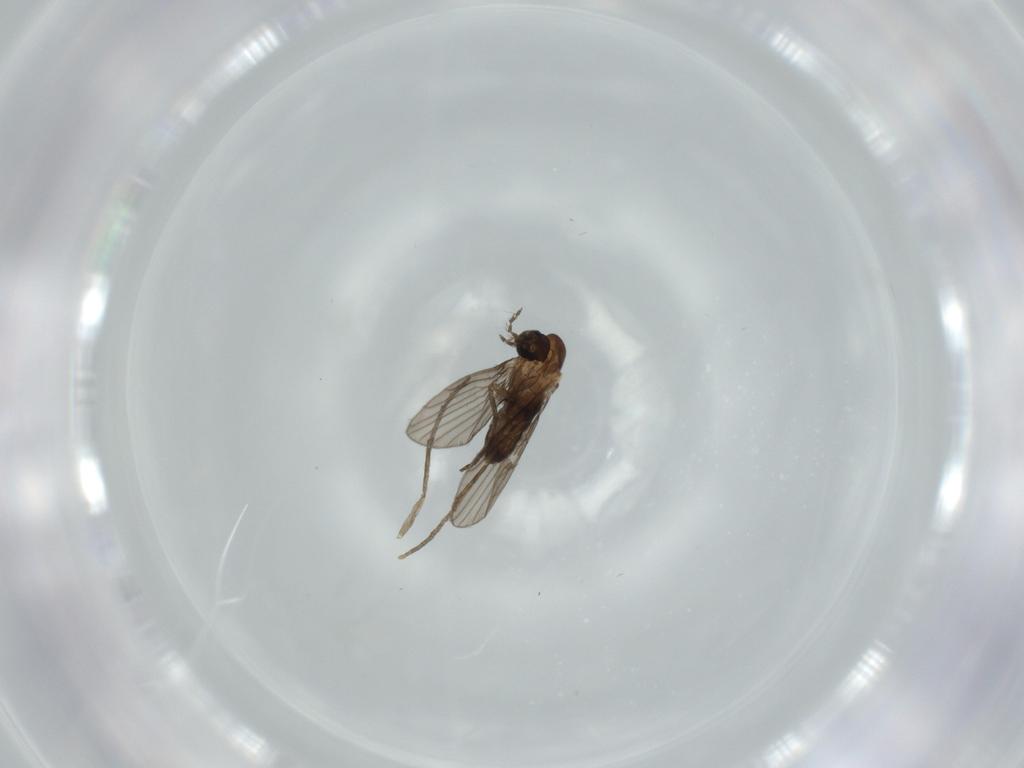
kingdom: Animalia
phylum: Arthropoda
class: Insecta
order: Diptera
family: Psychodidae
